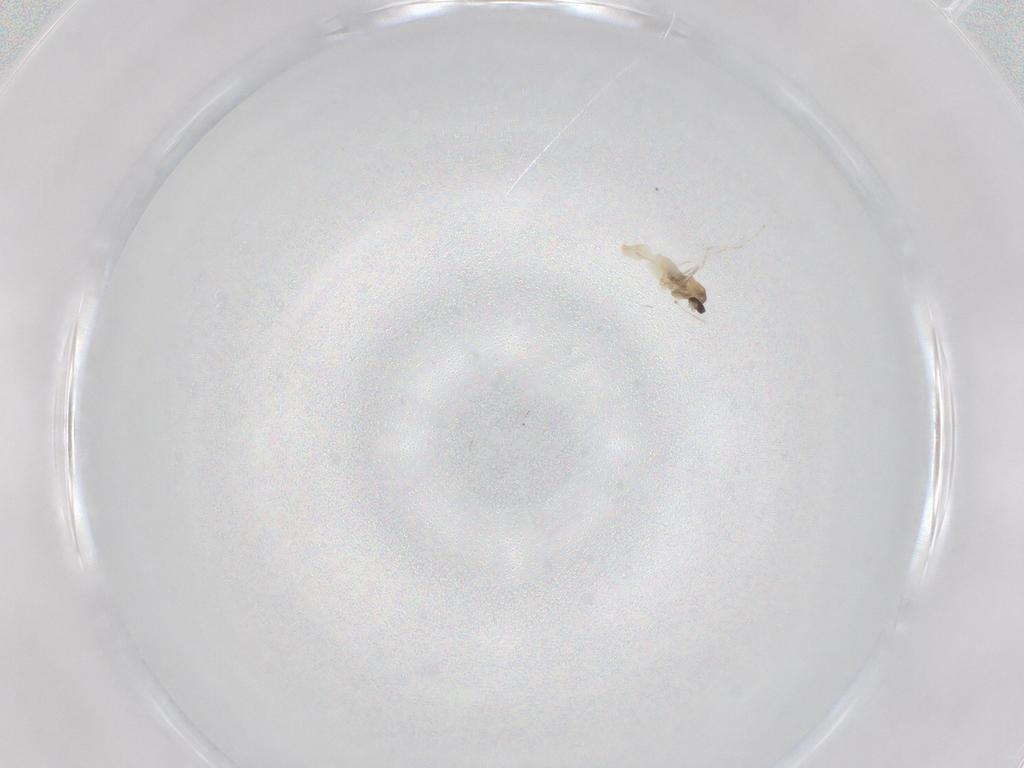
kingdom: Animalia
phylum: Arthropoda
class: Insecta
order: Diptera
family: Cecidomyiidae
